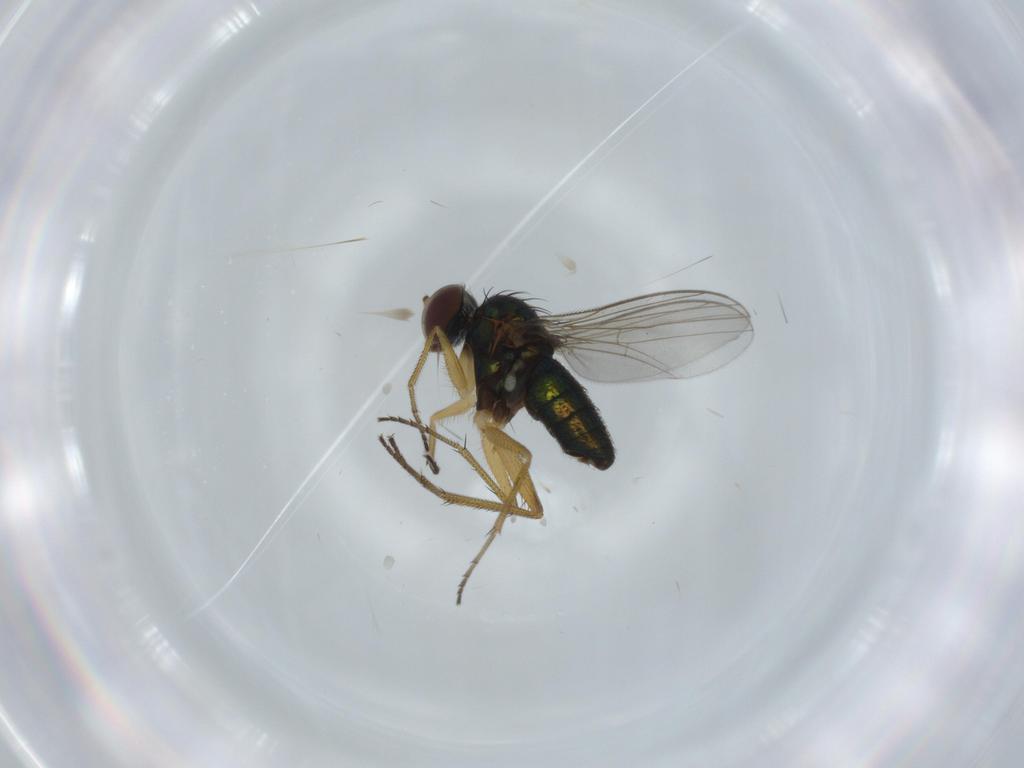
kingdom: Animalia
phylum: Arthropoda
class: Insecta
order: Diptera
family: Dolichopodidae
